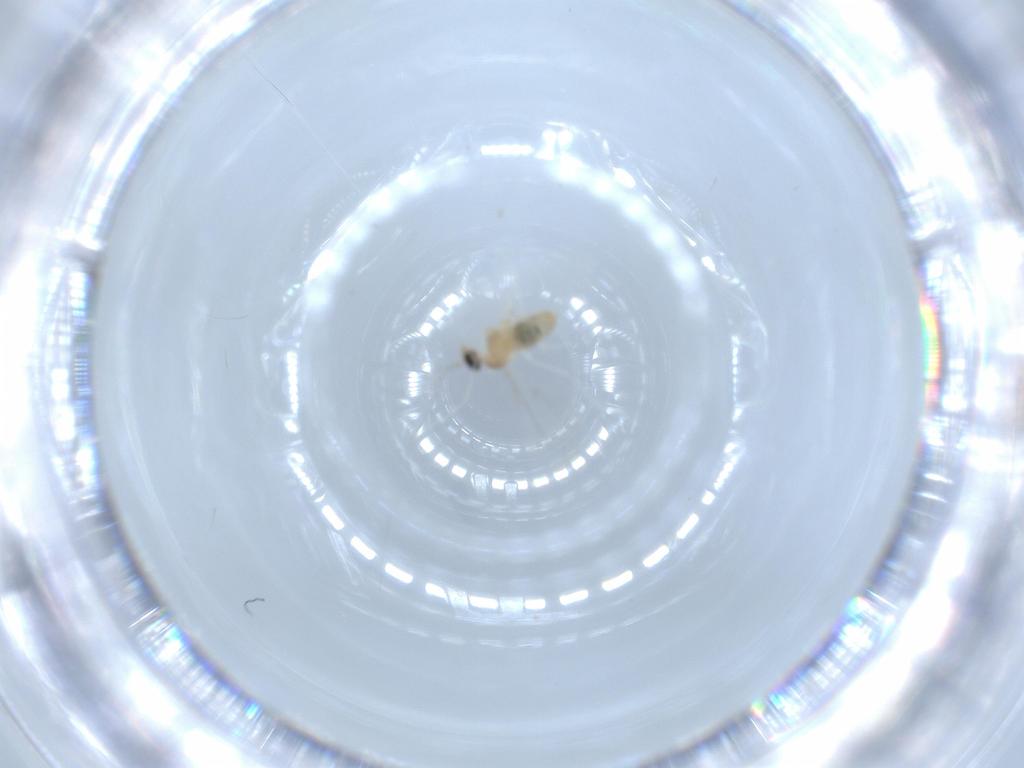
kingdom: Animalia
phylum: Arthropoda
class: Insecta
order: Diptera
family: Cecidomyiidae
